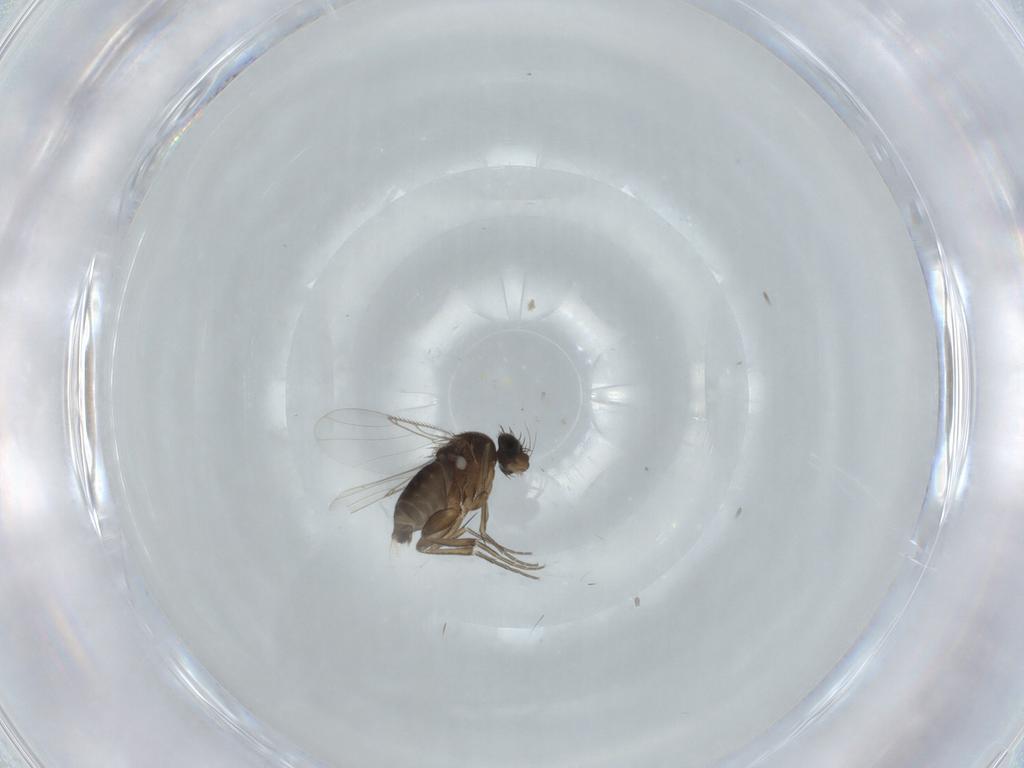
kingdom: Animalia
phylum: Arthropoda
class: Insecta
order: Diptera
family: Phoridae
